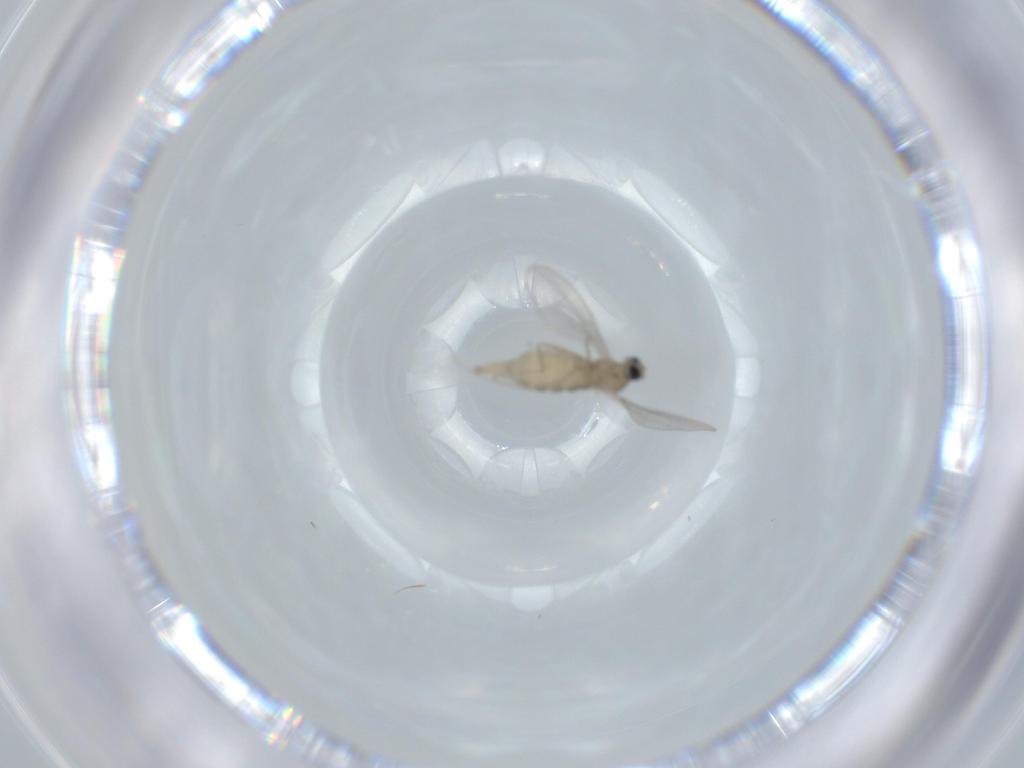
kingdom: Animalia
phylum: Arthropoda
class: Insecta
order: Diptera
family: Cecidomyiidae
